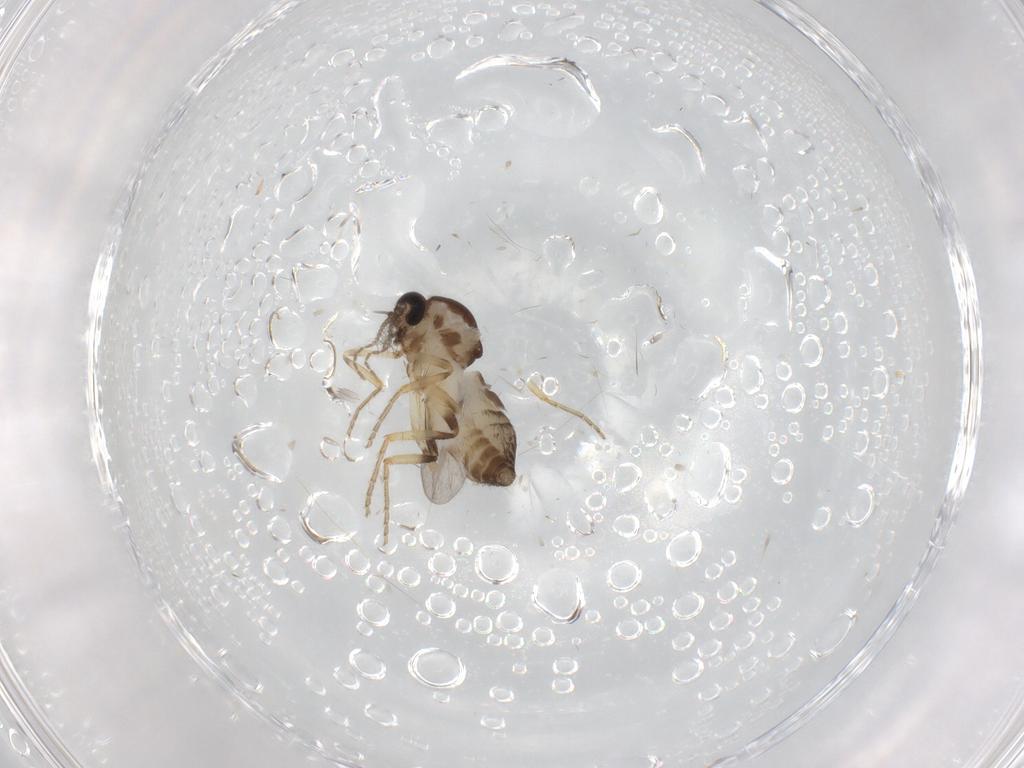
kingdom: Animalia
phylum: Arthropoda
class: Insecta
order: Diptera
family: Ceratopogonidae
